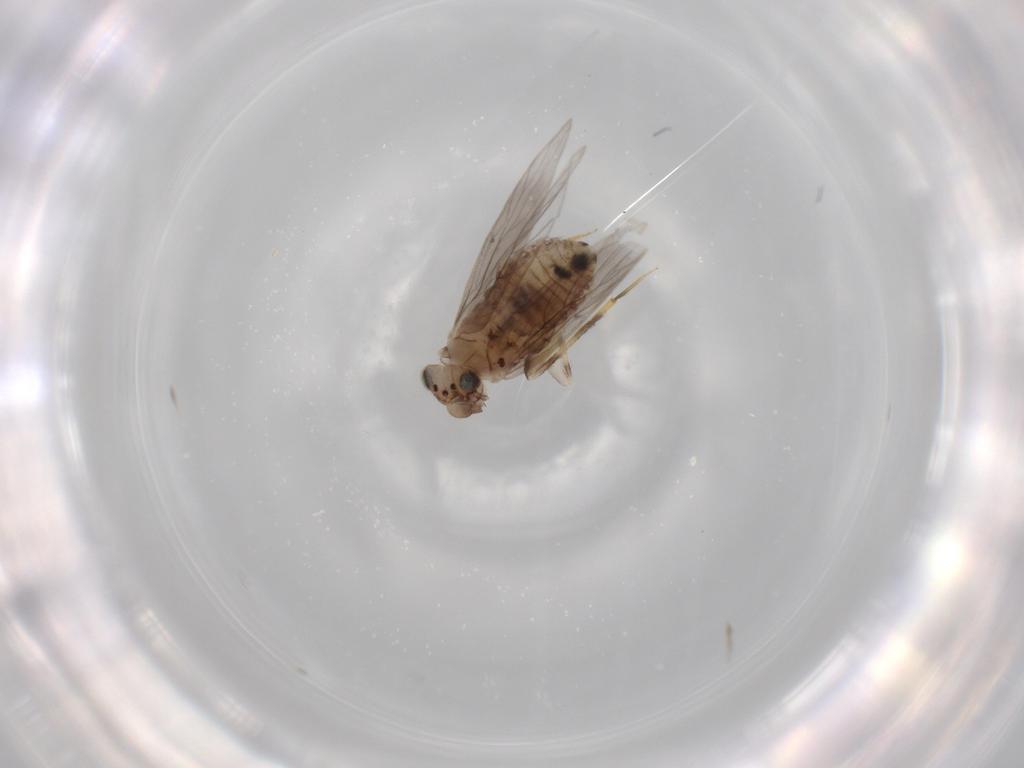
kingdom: Animalia
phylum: Arthropoda
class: Insecta
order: Psocodea
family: Lepidopsocidae
